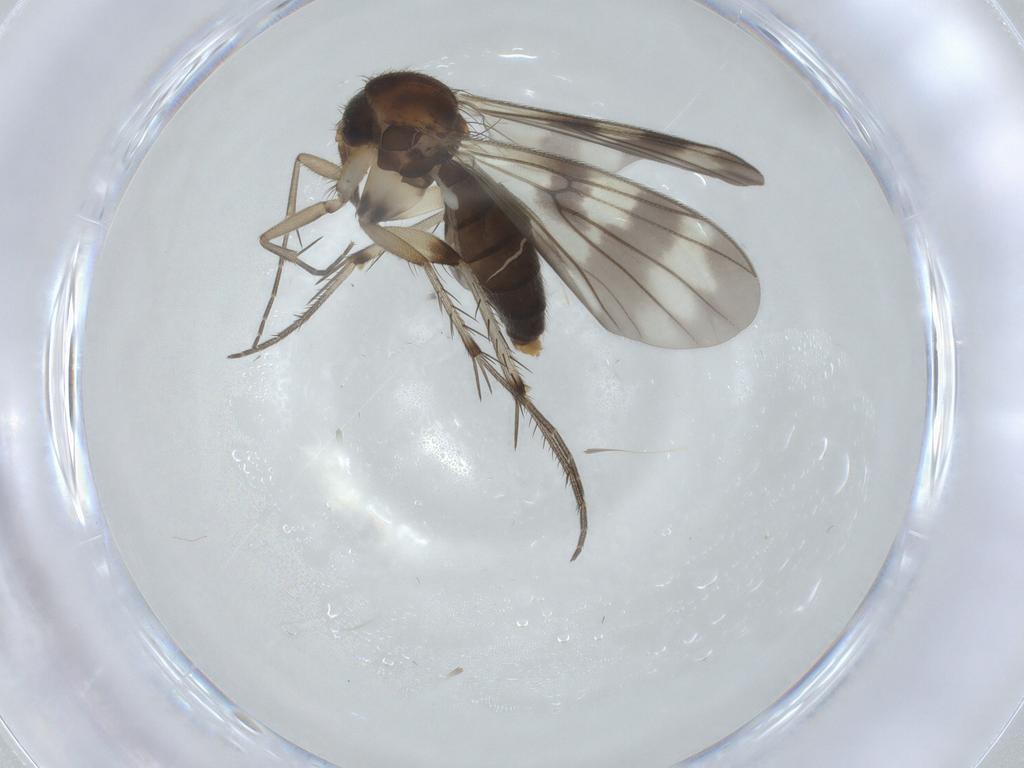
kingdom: Animalia
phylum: Arthropoda
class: Insecta
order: Diptera
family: Mycetophilidae
